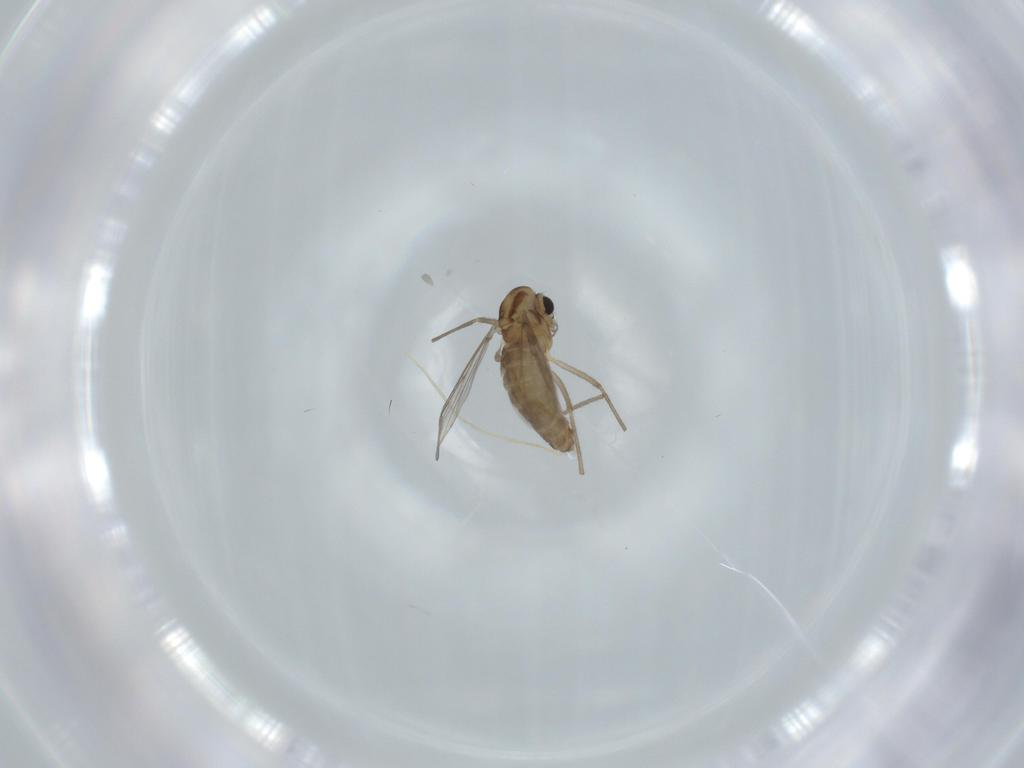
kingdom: Animalia
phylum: Arthropoda
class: Insecta
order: Diptera
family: Chironomidae
